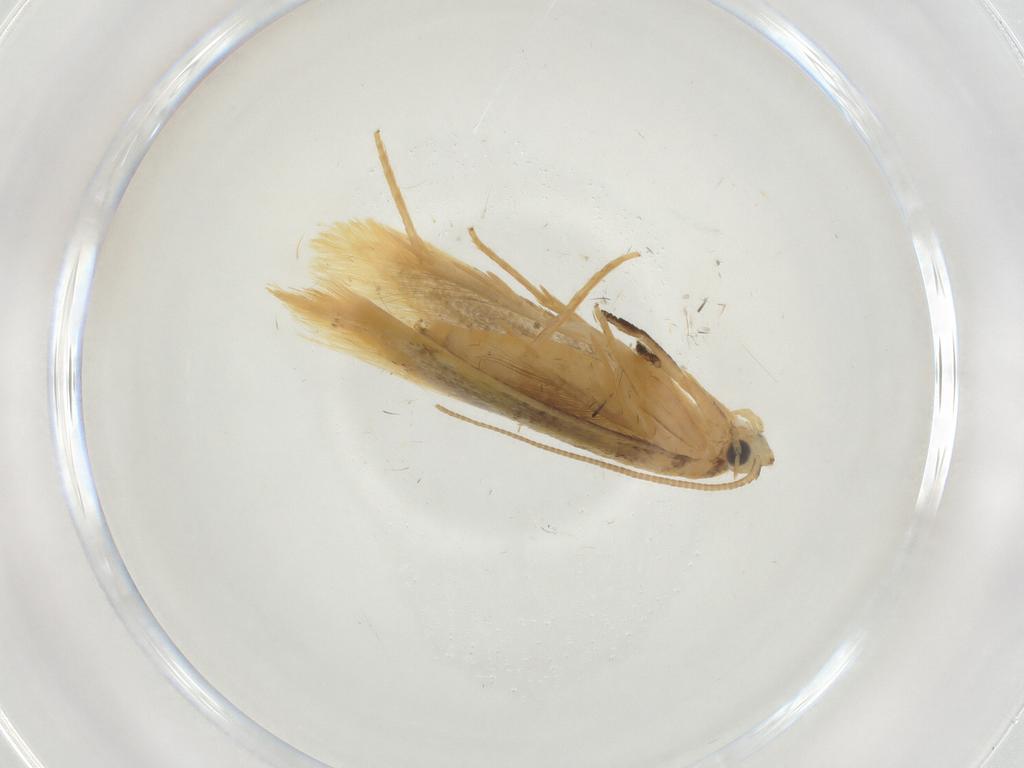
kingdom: Animalia
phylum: Arthropoda
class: Insecta
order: Lepidoptera
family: Tineidae
